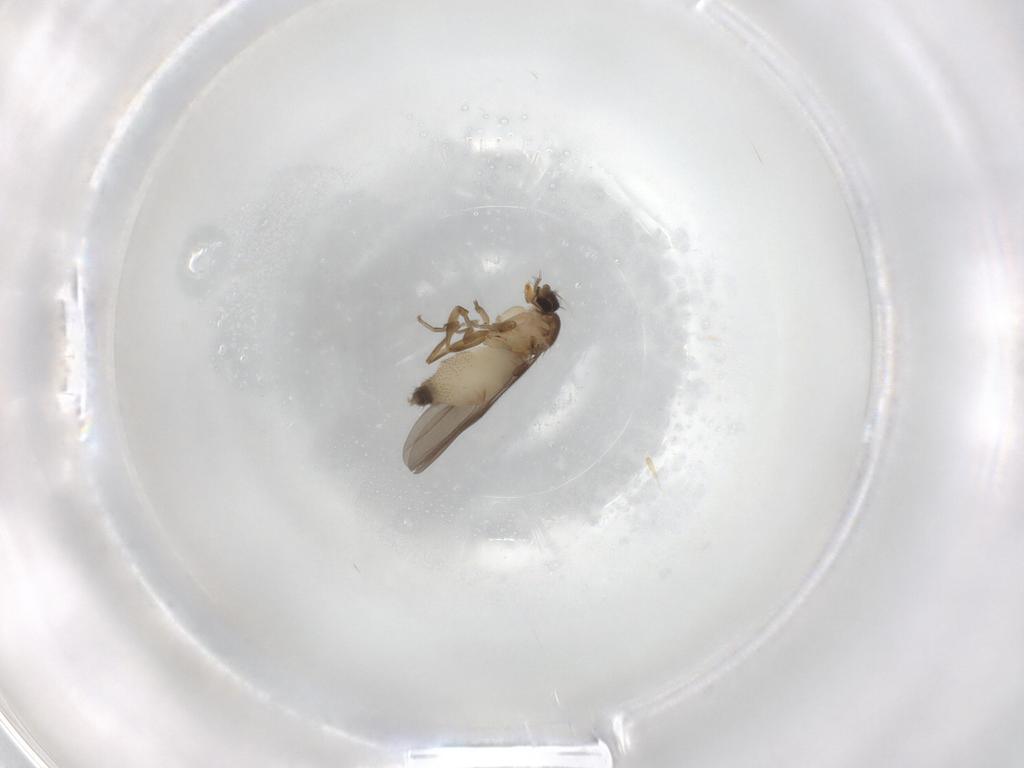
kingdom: Animalia
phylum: Arthropoda
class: Insecta
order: Diptera
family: Phoridae
